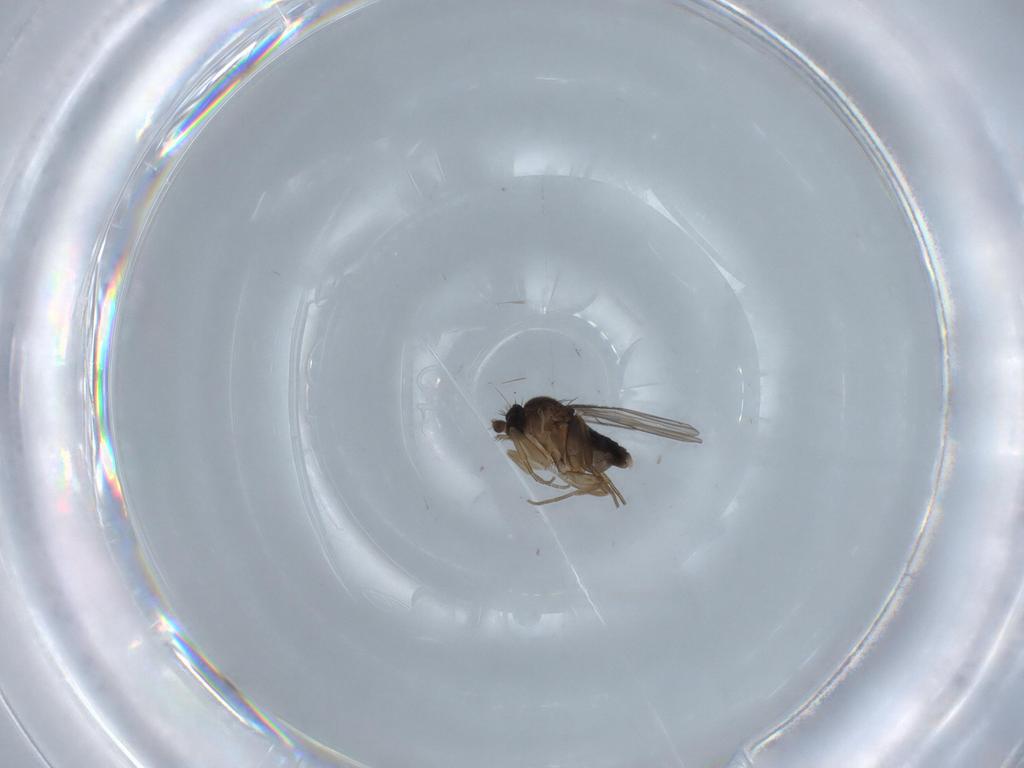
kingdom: Animalia
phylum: Arthropoda
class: Insecta
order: Diptera
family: Phoridae
